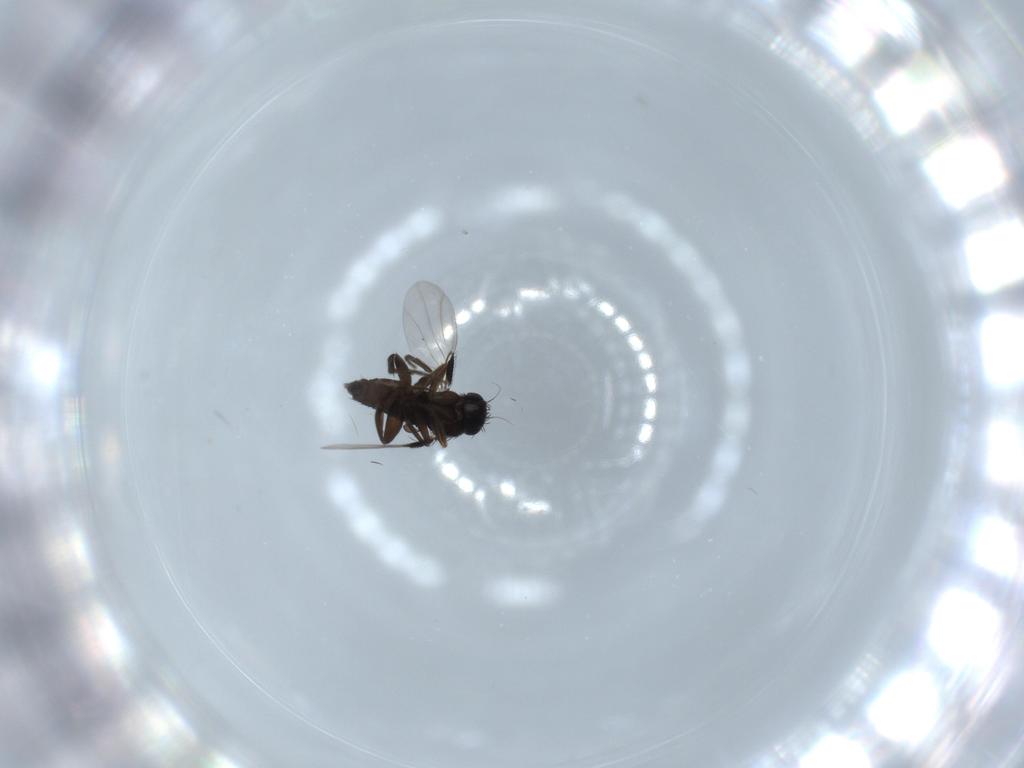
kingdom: Animalia
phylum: Arthropoda
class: Insecta
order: Diptera
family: Phoridae
